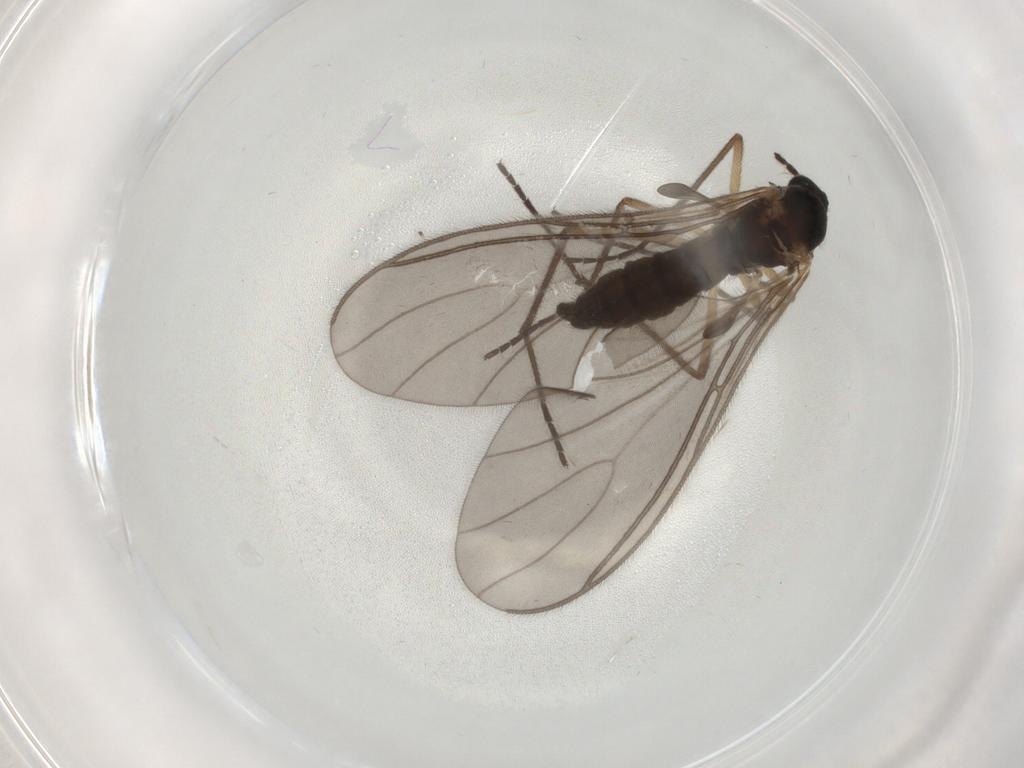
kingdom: Animalia
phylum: Arthropoda
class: Insecta
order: Diptera
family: Sciaridae
